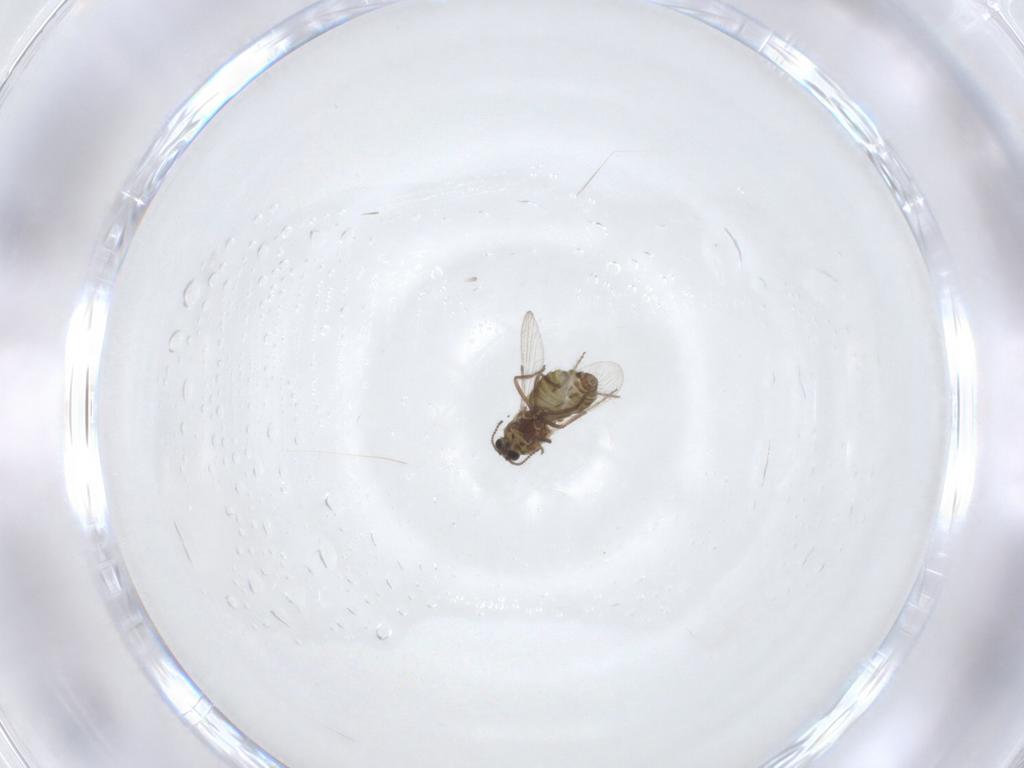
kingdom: Animalia
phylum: Arthropoda
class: Insecta
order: Diptera
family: Ceratopogonidae
